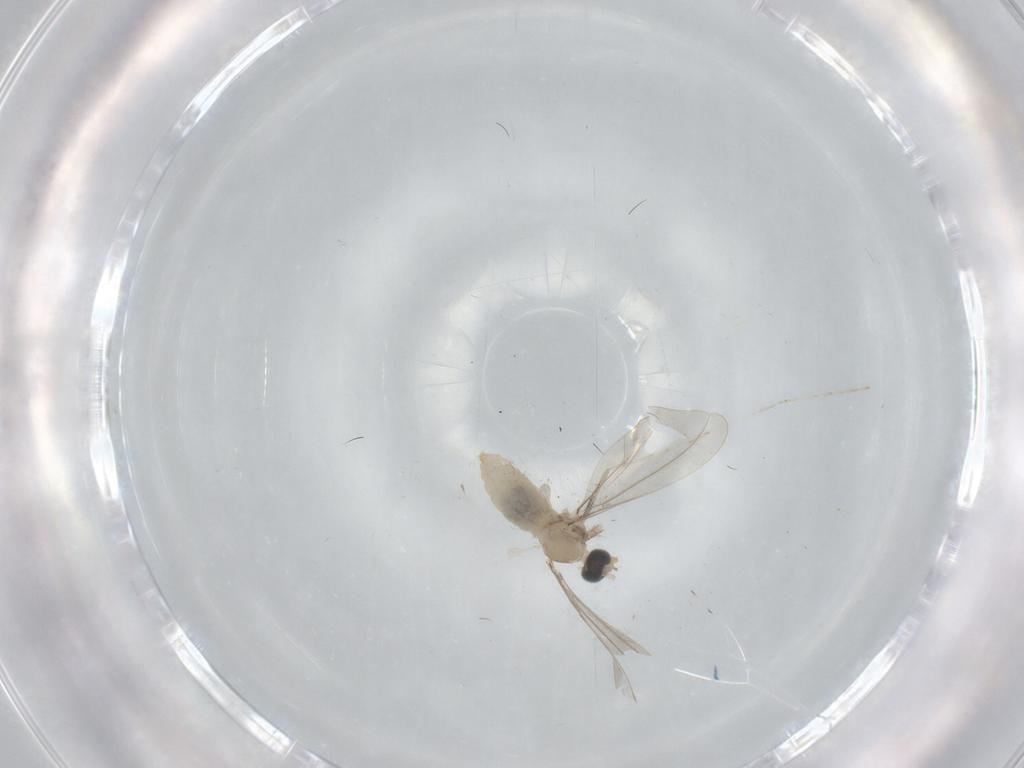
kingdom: Animalia
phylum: Arthropoda
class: Insecta
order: Diptera
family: Cecidomyiidae
